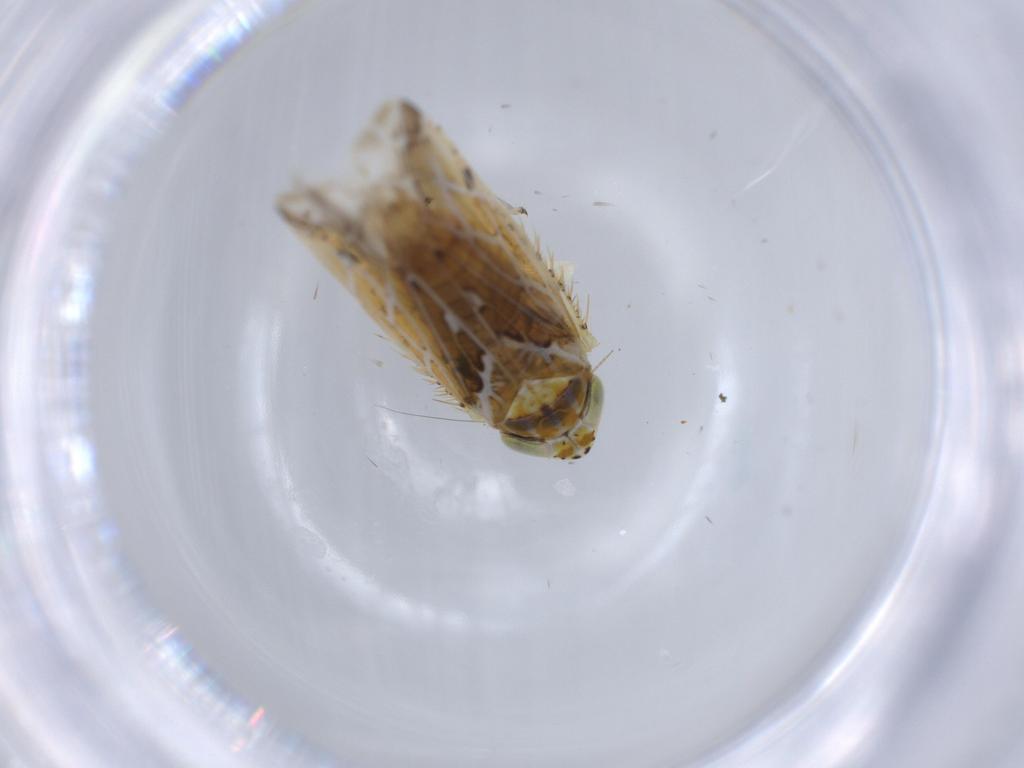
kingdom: Animalia
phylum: Arthropoda
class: Insecta
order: Hemiptera
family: Cicadellidae
